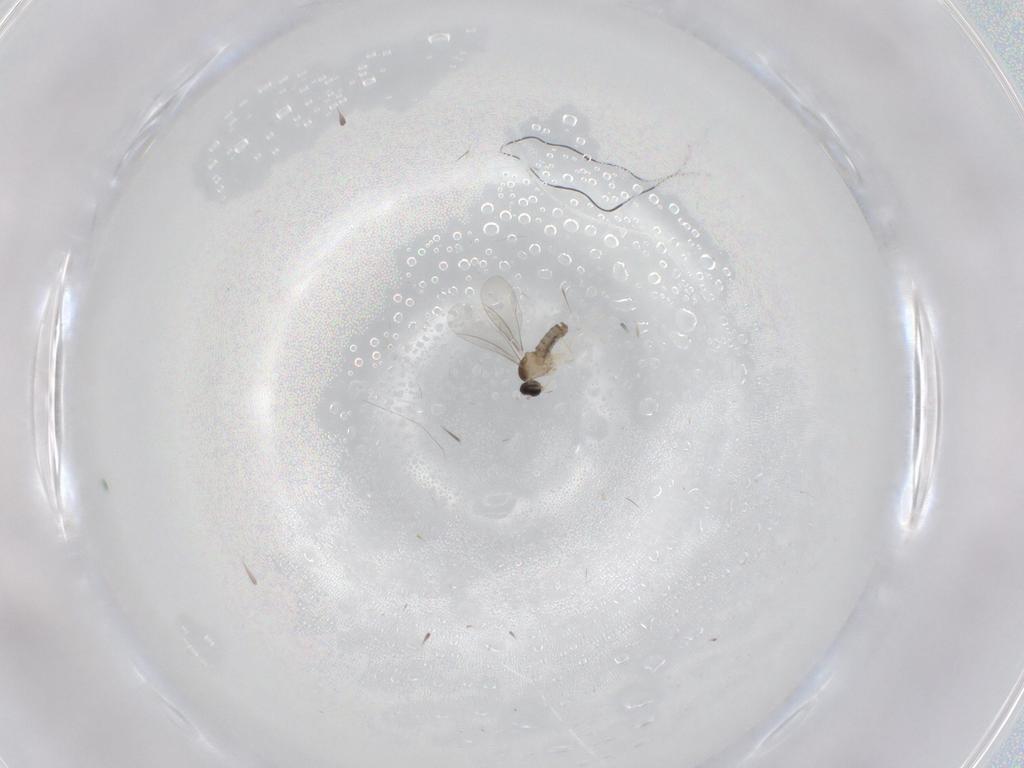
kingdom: Animalia
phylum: Arthropoda
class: Insecta
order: Diptera
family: Cecidomyiidae
